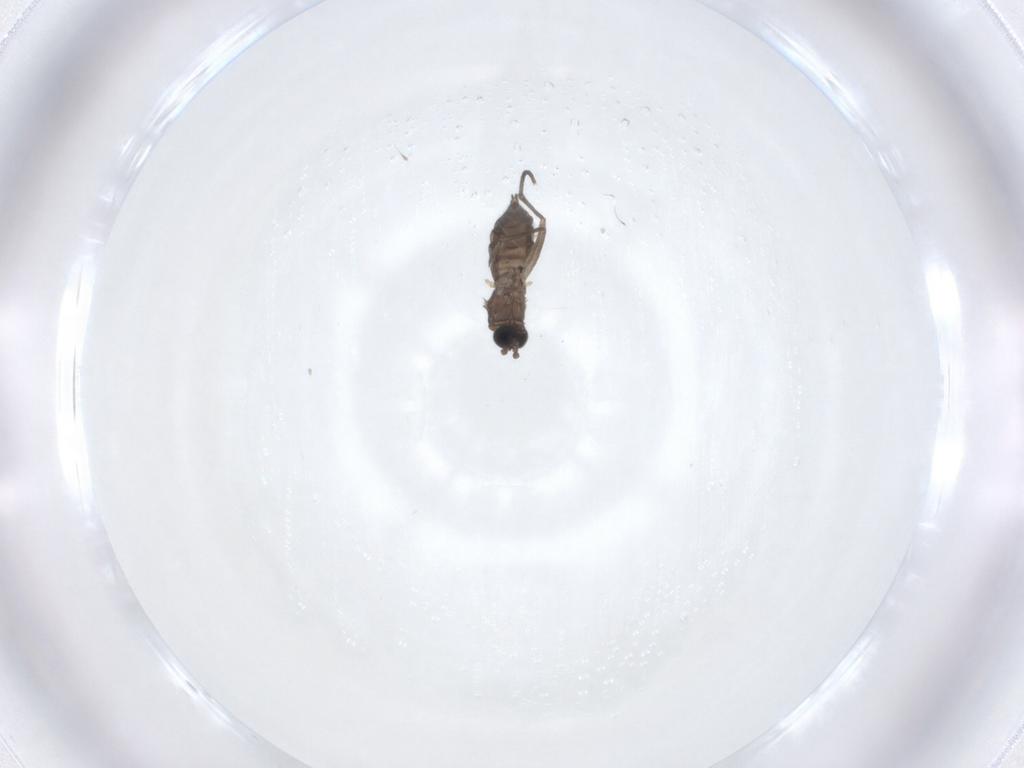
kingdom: Animalia
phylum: Arthropoda
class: Insecta
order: Diptera
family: Sciaridae
